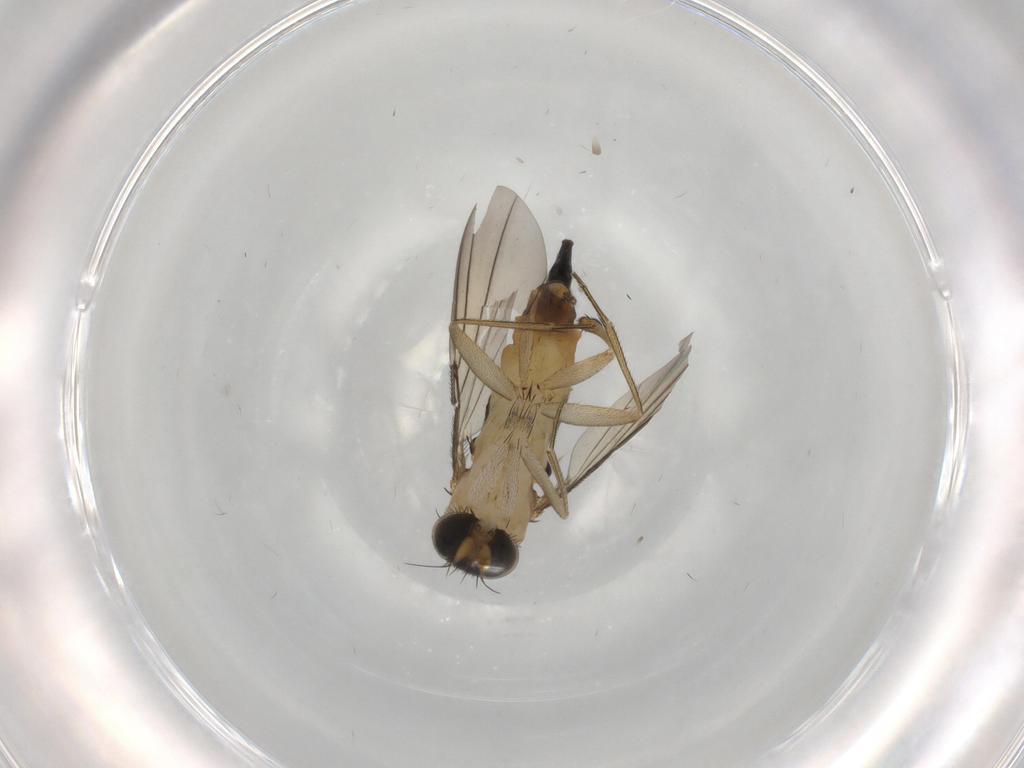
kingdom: Animalia
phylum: Arthropoda
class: Insecta
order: Diptera
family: Phoridae
